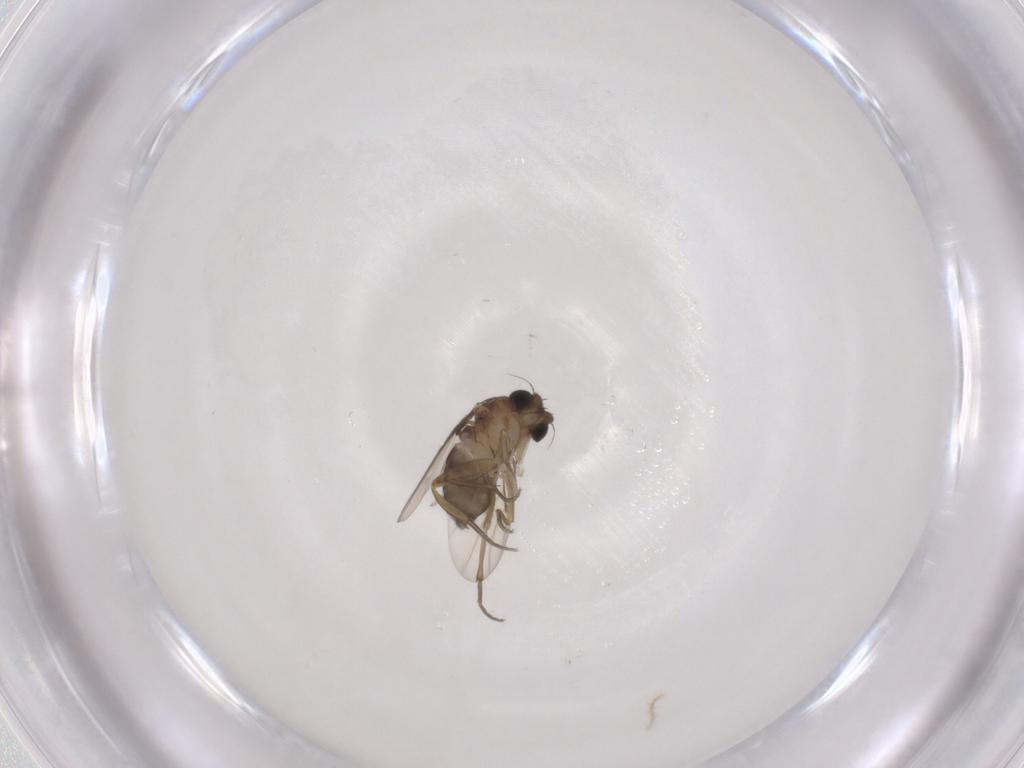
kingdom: Animalia
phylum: Arthropoda
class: Insecta
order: Diptera
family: Phoridae
